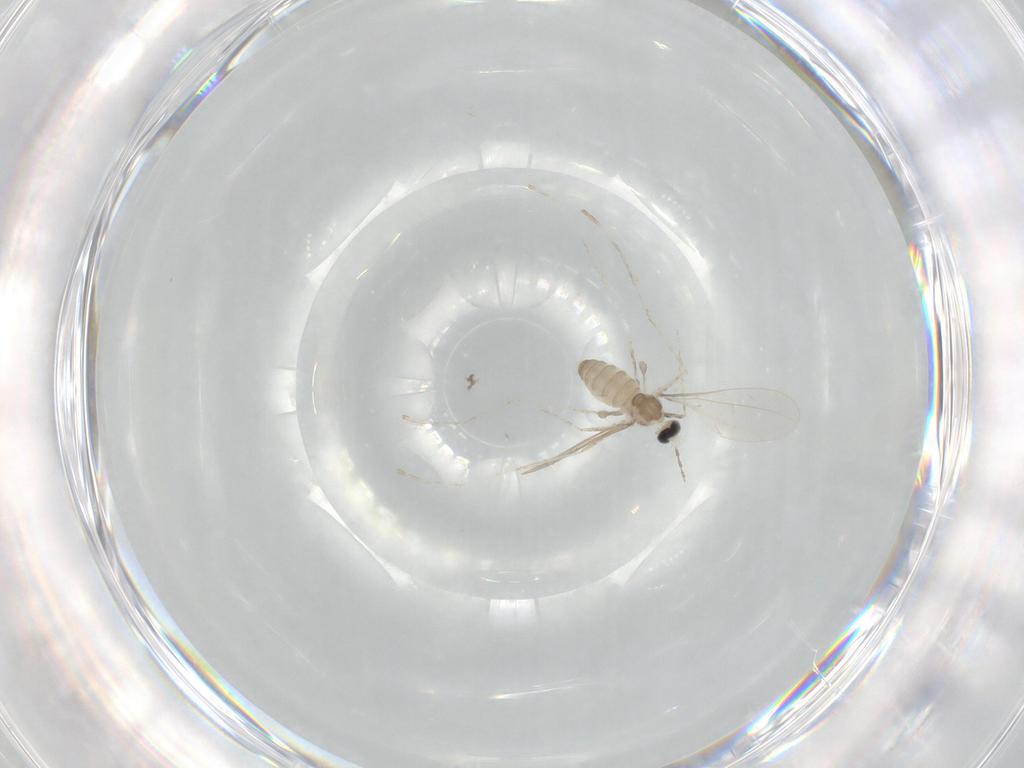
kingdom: Animalia
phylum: Arthropoda
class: Insecta
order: Diptera
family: Cecidomyiidae
